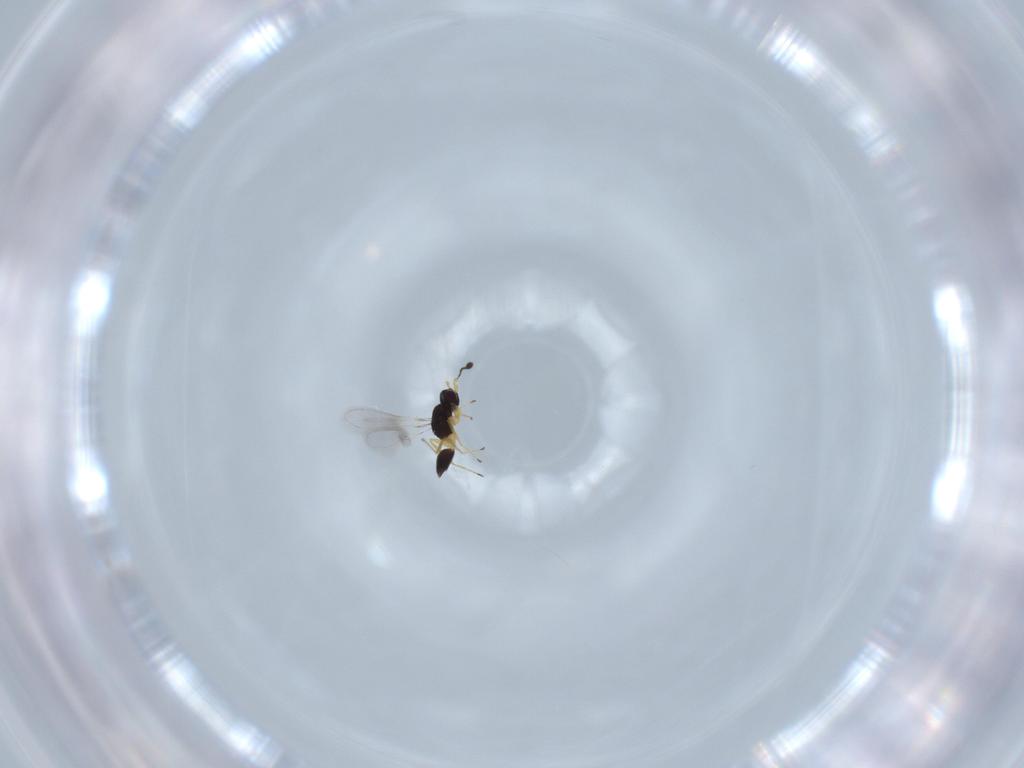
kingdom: Animalia
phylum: Arthropoda
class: Insecta
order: Hymenoptera
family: Mymaridae
